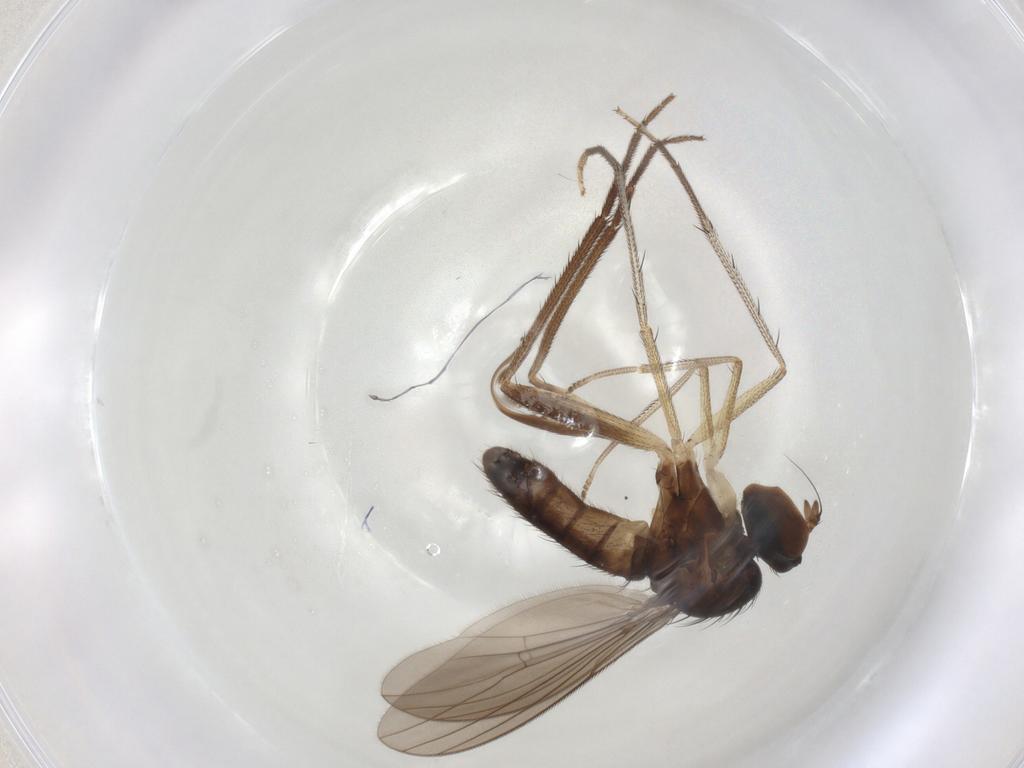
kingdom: Animalia
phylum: Arthropoda
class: Insecta
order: Diptera
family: Dolichopodidae
